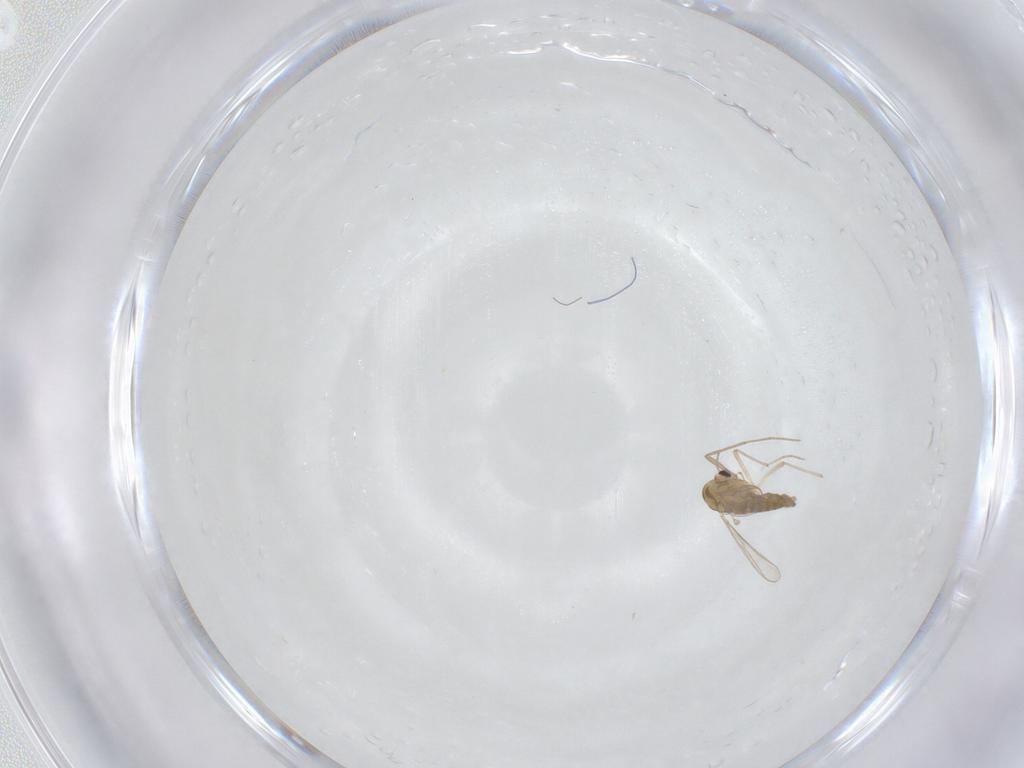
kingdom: Animalia
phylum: Arthropoda
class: Insecta
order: Diptera
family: Chironomidae
